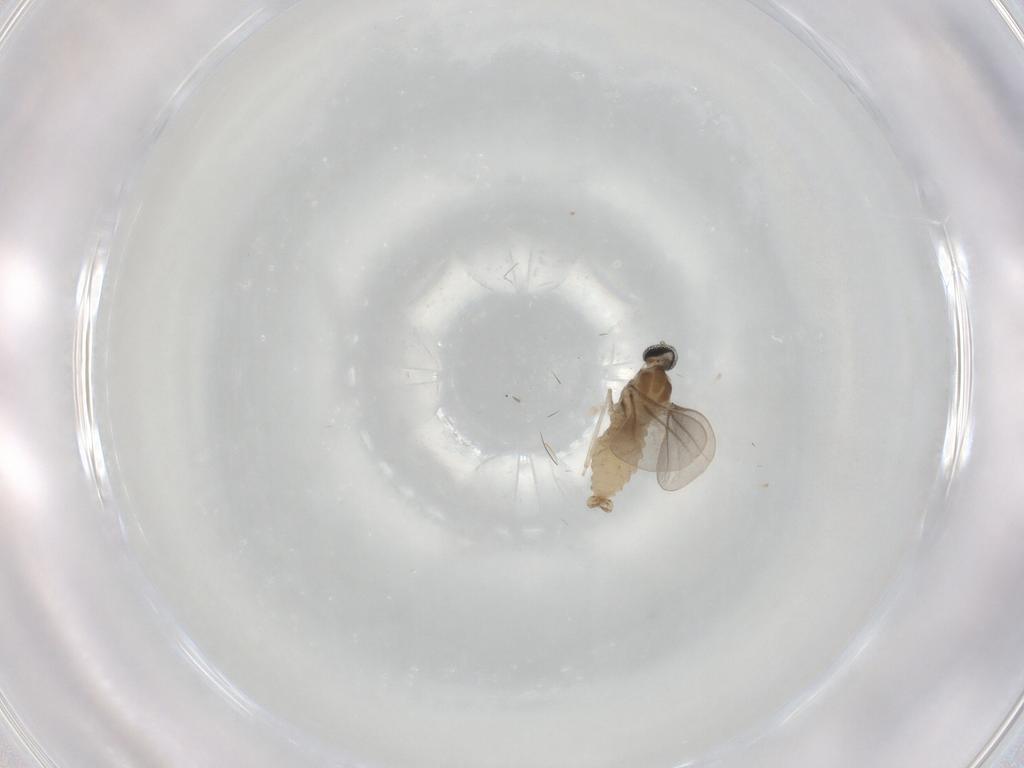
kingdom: Animalia
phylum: Arthropoda
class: Insecta
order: Diptera
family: Cecidomyiidae
